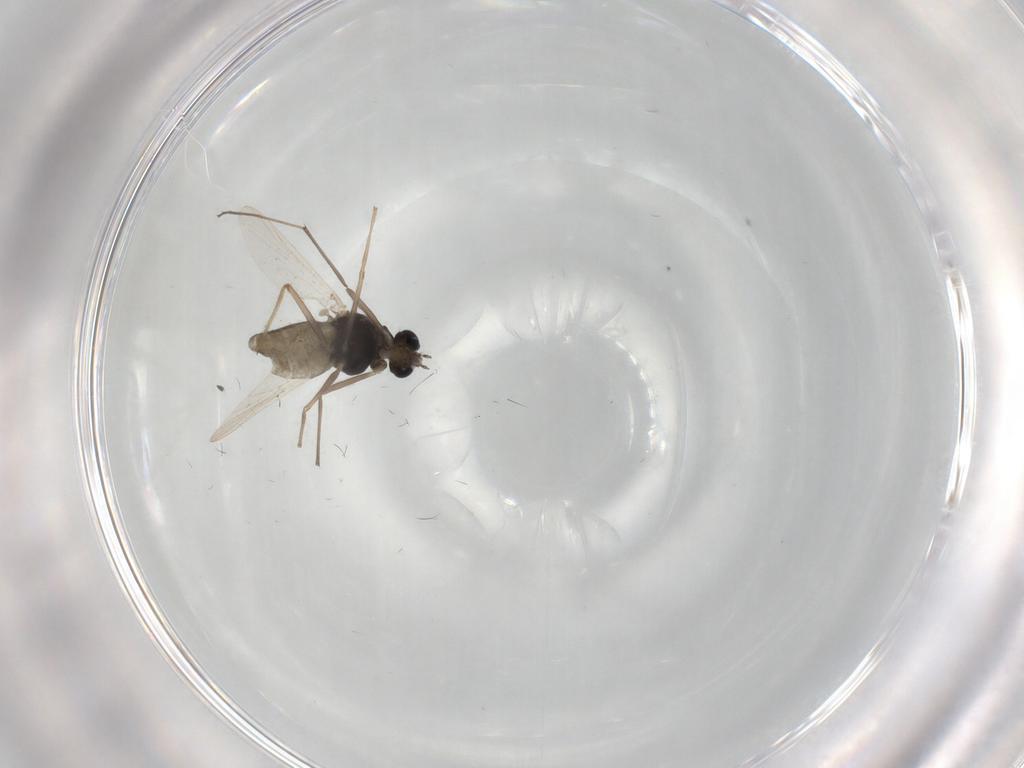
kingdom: Animalia
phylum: Arthropoda
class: Insecta
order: Diptera
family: Chironomidae
